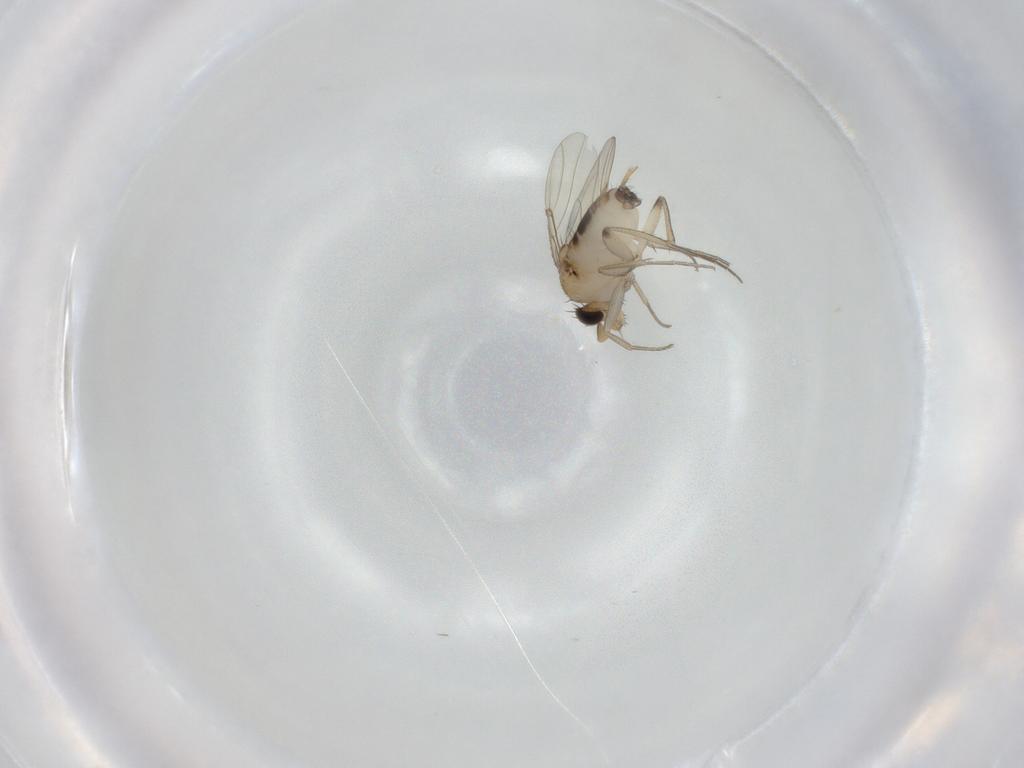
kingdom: Animalia
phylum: Arthropoda
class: Insecta
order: Diptera
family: Phoridae
